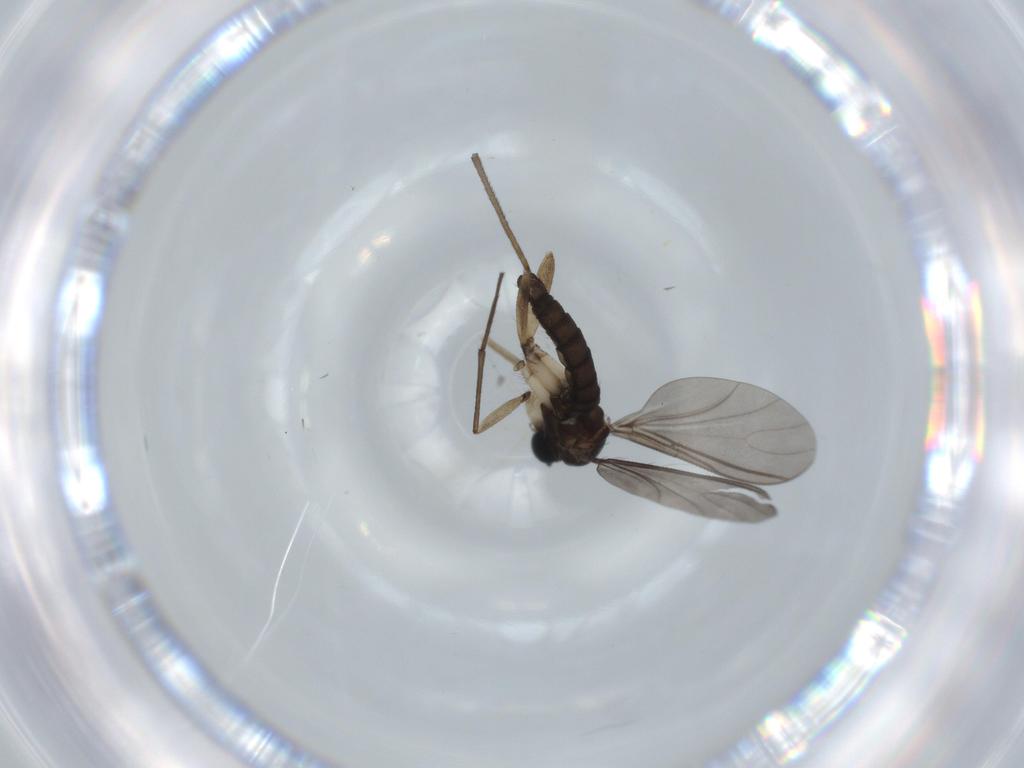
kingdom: Animalia
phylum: Arthropoda
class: Insecta
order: Diptera
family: Sciaridae
